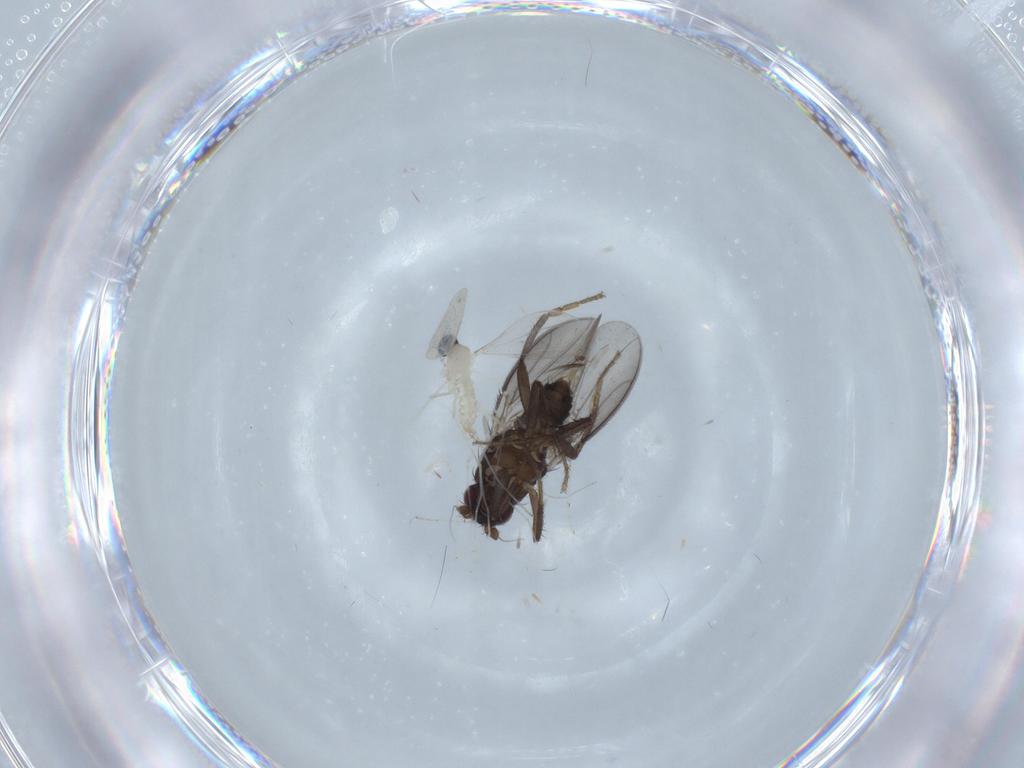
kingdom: Animalia
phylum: Arthropoda
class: Insecta
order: Diptera
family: Cecidomyiidae
